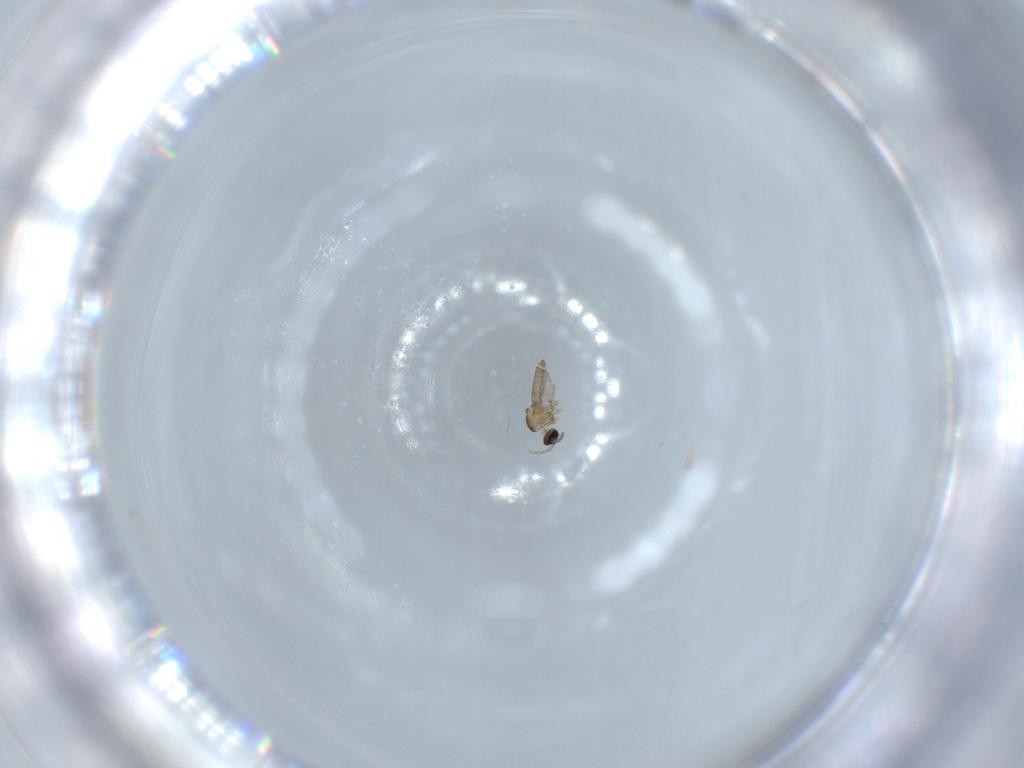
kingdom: Animalia
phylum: Arthropoda
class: Insecta
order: Diptera
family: Cecidomyiidae
